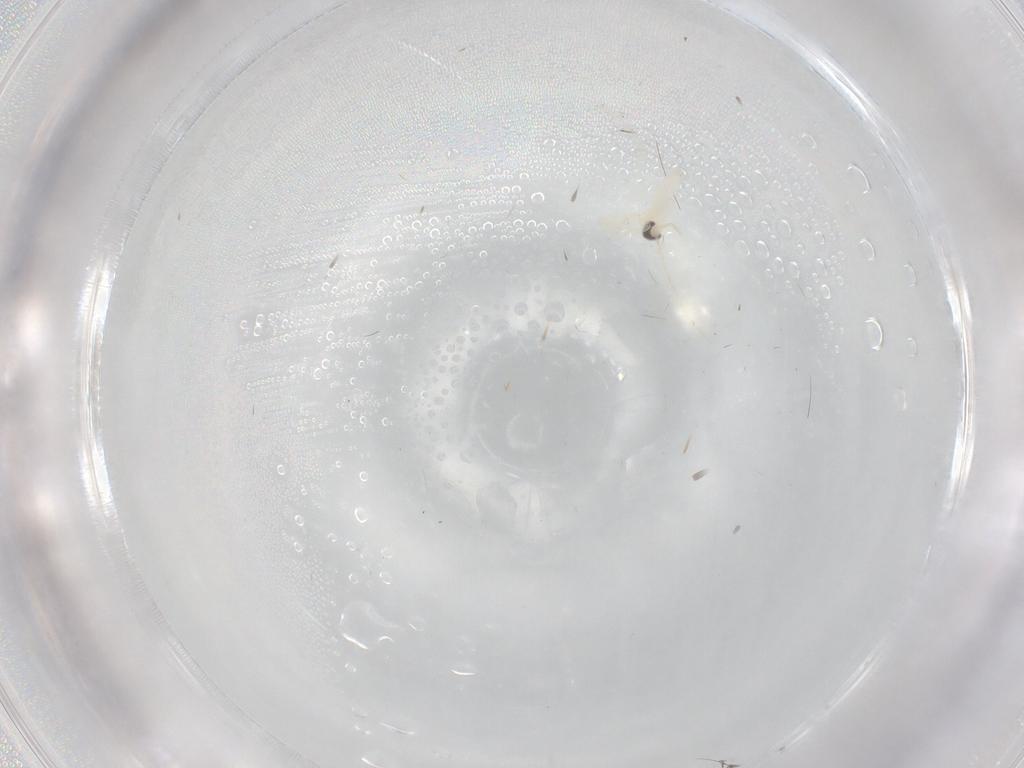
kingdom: Animalia
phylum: Arthropoda
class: Insecta
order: Diptera
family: Cecidomyiidae
